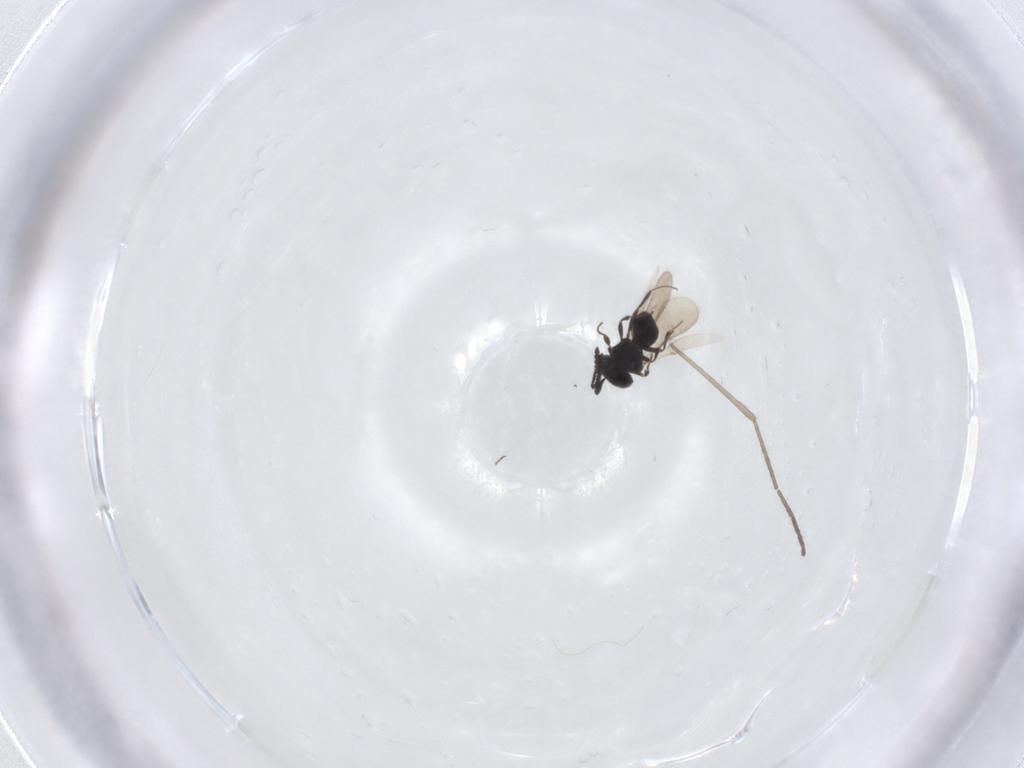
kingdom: Animalia
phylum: Arthropoda
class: Insecta
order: Hymenoptera
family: Scelionidae
